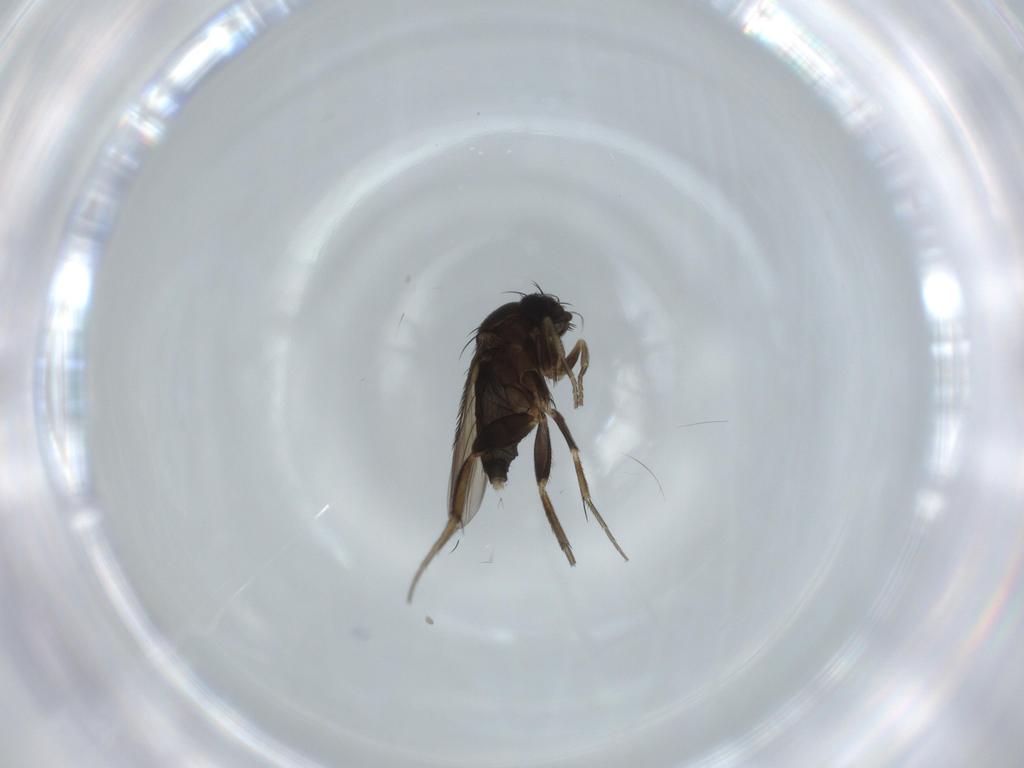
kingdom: Animalia
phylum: Arthropoda
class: Insecta
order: Diptera
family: Phoridae
